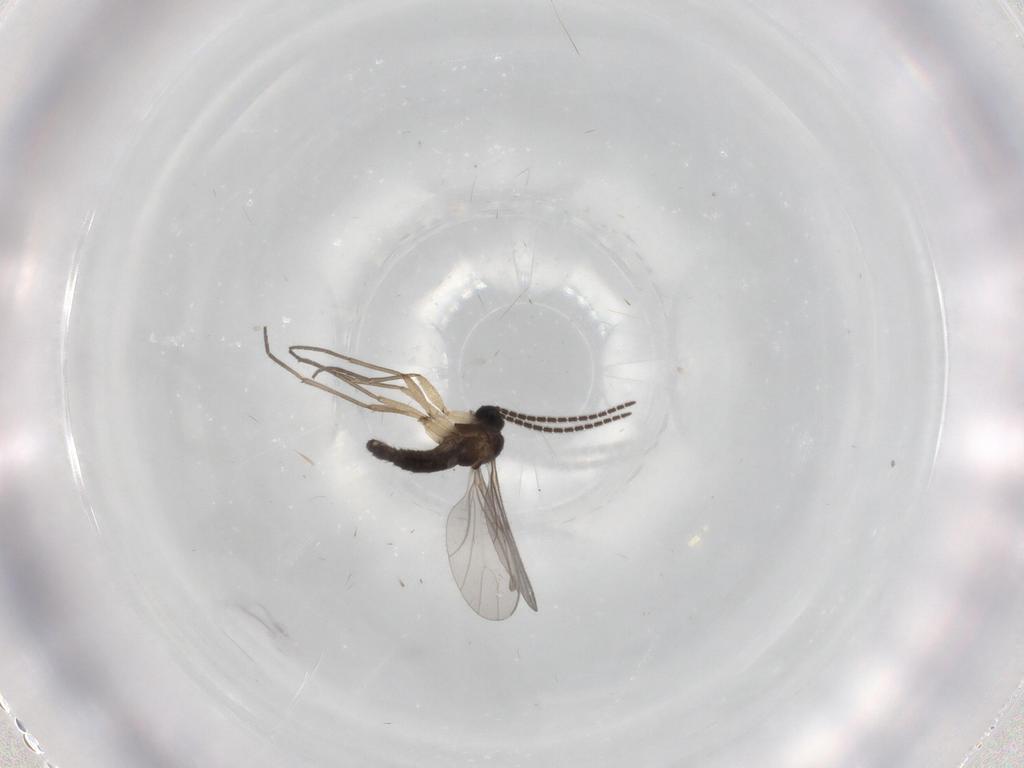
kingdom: Animalia
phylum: Arthropoda
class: Insecta
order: Diptera
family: Sciaridae
